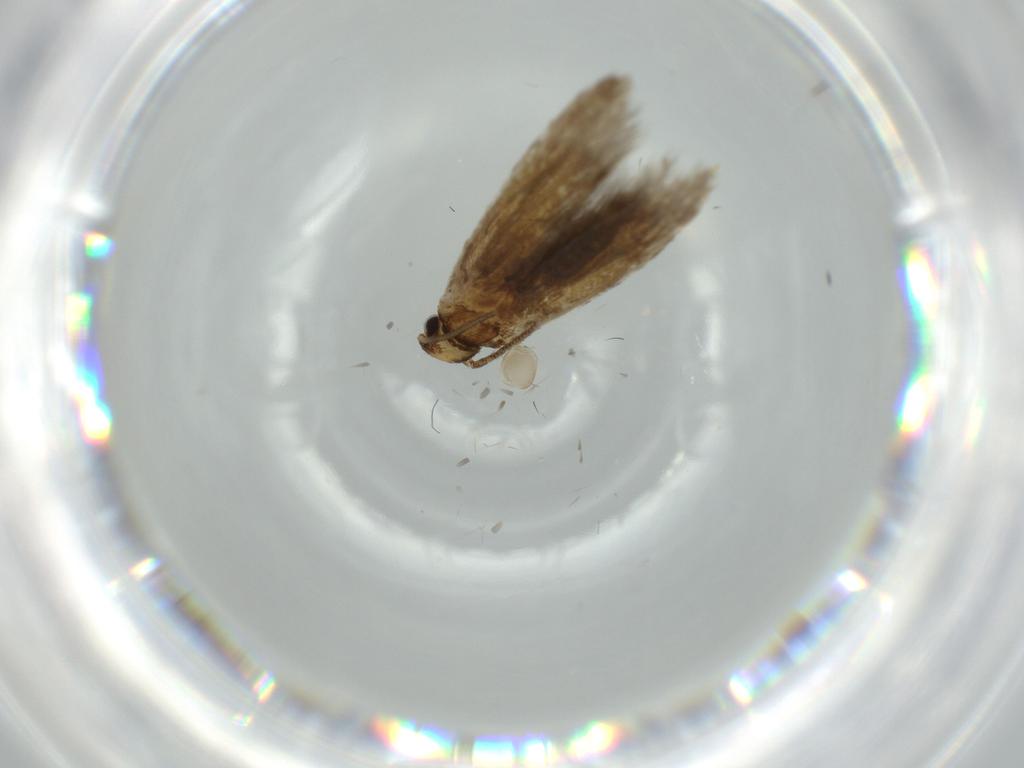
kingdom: Animalia
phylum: Arthropoda
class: Insecta
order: Lepidoptera
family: Tineidae
